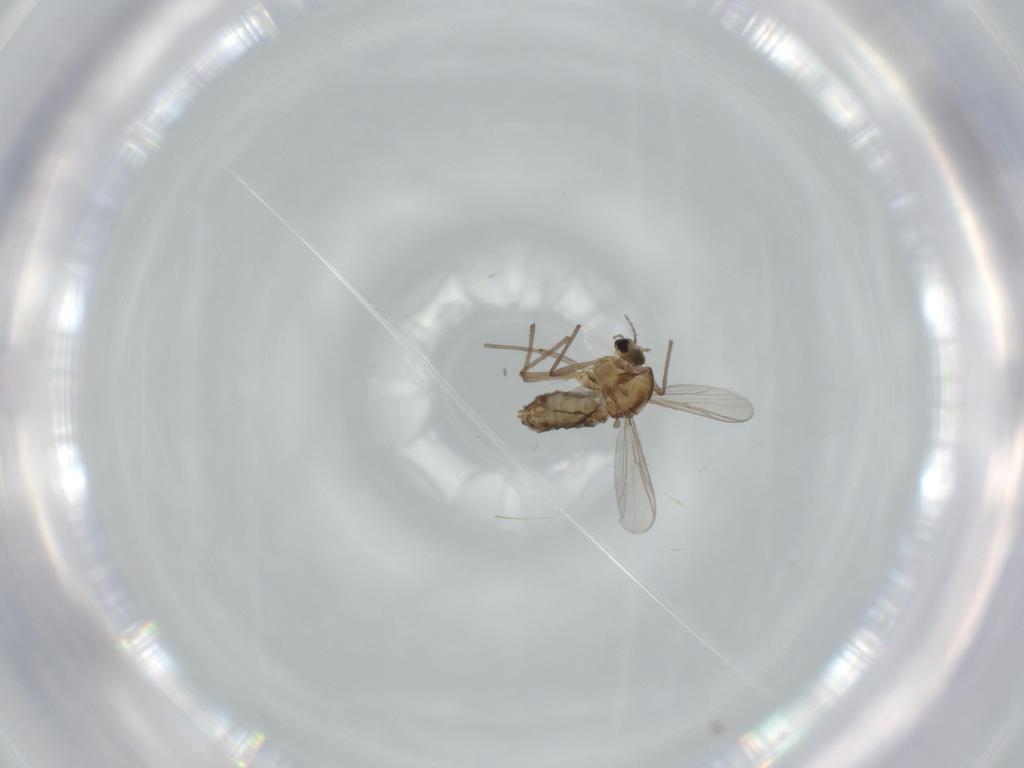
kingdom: Animalia
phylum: Arthropoda
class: Insecta
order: Diptera
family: Chironomidae
